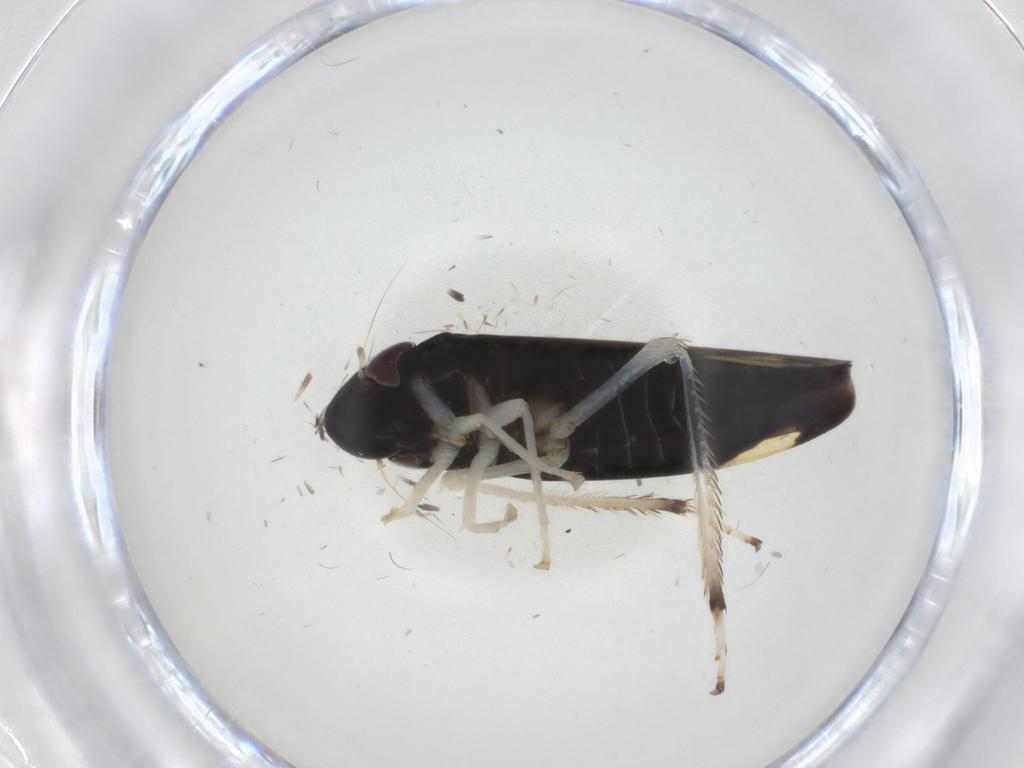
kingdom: Animalia
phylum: Arthropoda
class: Insecta
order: Hemiptera
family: Cicadellidae
